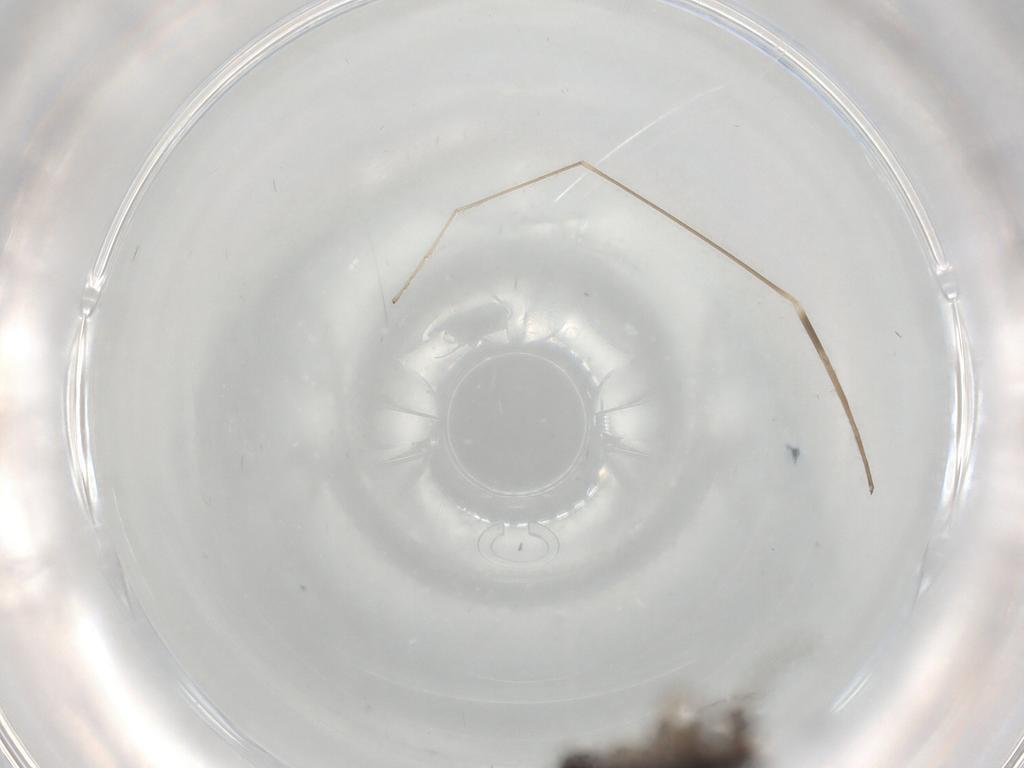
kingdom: Animalia
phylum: Arthropoda
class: Insecta
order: Diptera
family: Phoridae
